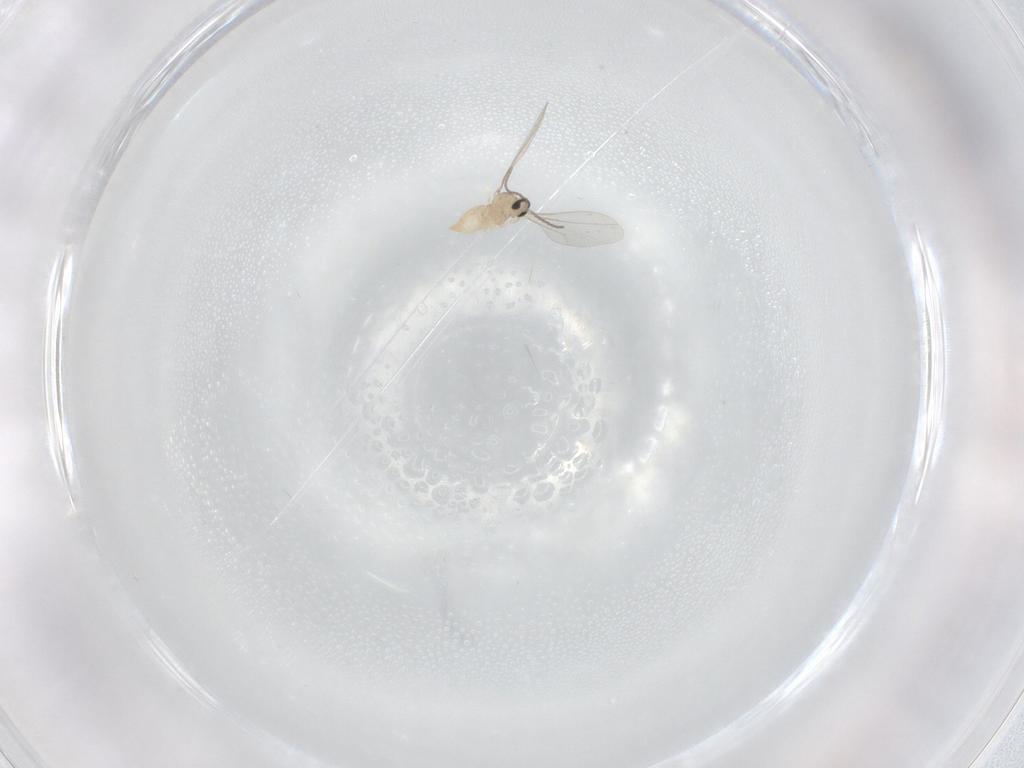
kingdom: Animalia
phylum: Arthropoda
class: Insecta
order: Diptera
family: Cecidomyiidae
